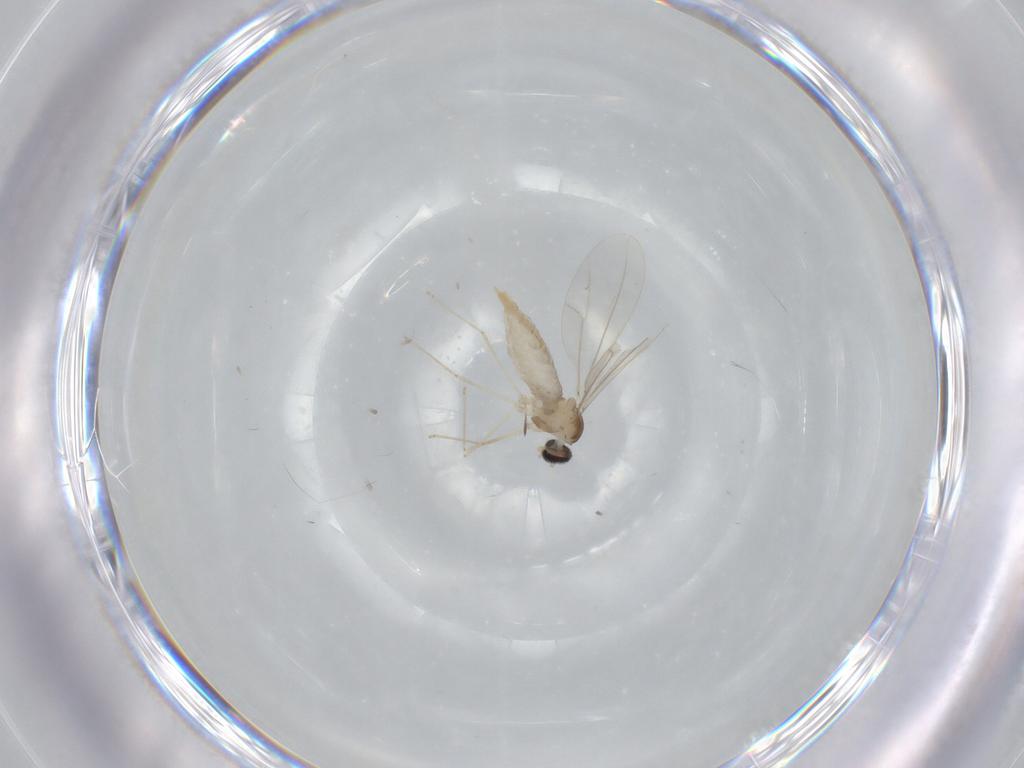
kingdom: Animalia
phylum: Arthropoda
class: Insecta
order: Diptera
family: Cecidomyiidae
